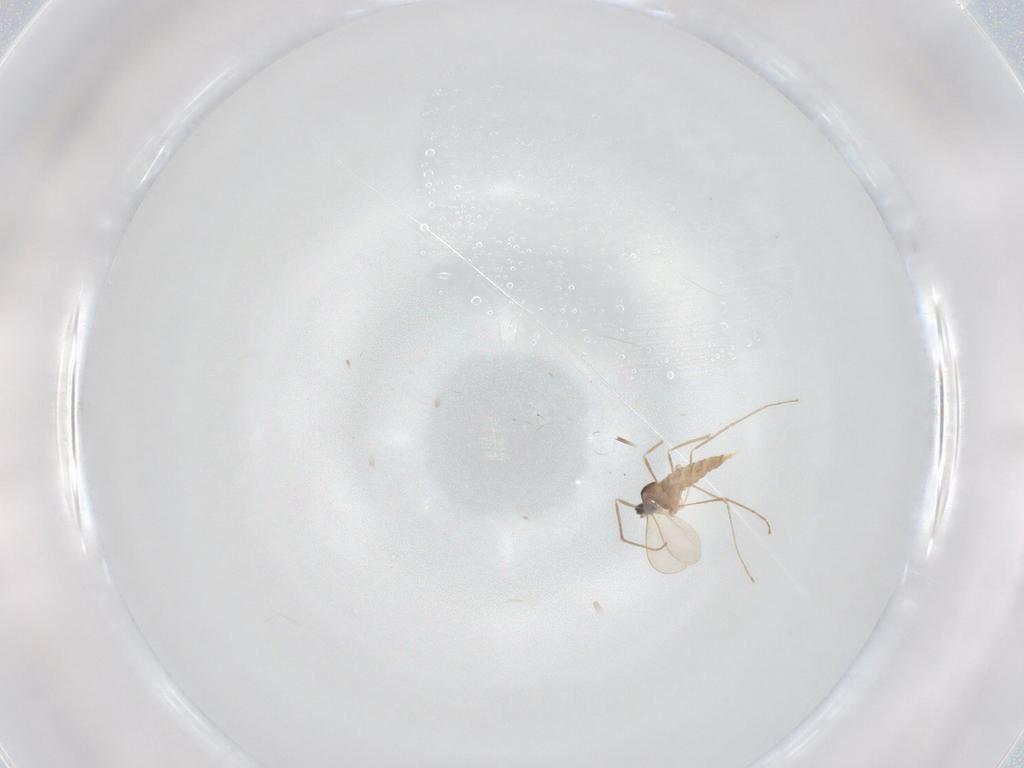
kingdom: Animalia
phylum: Arthropoda
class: Insecta
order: Diptera
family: Cecidomyiidae
